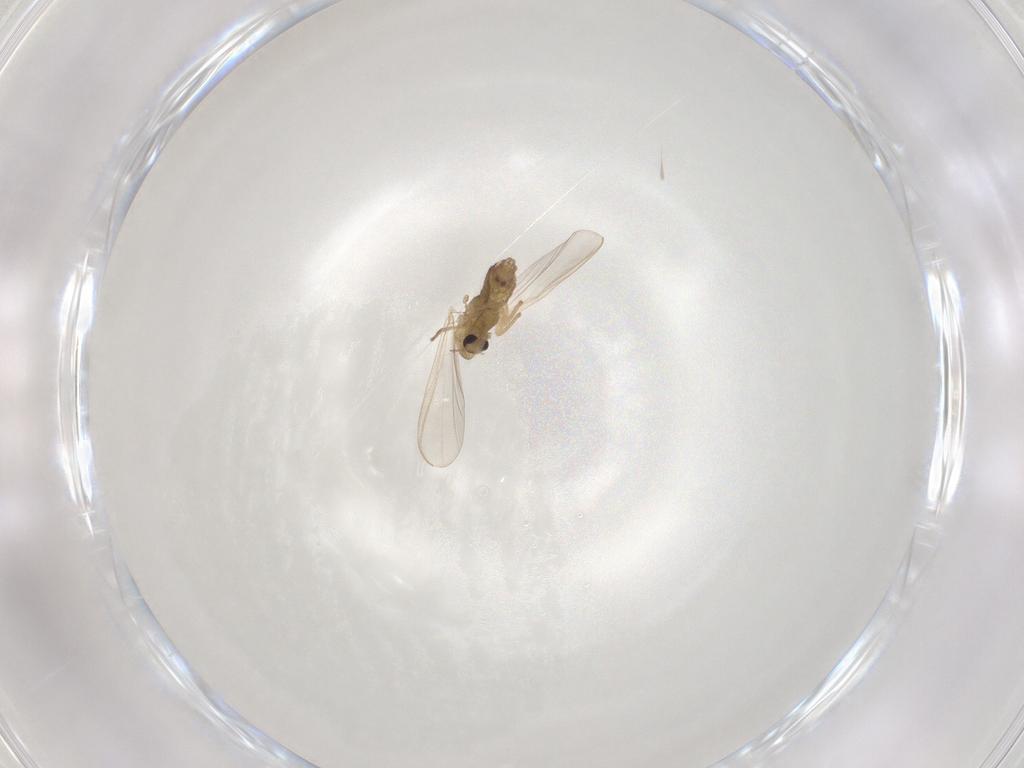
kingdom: Animalia
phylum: Arthropoda
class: Insecta
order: Diptera
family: Chironomidae
